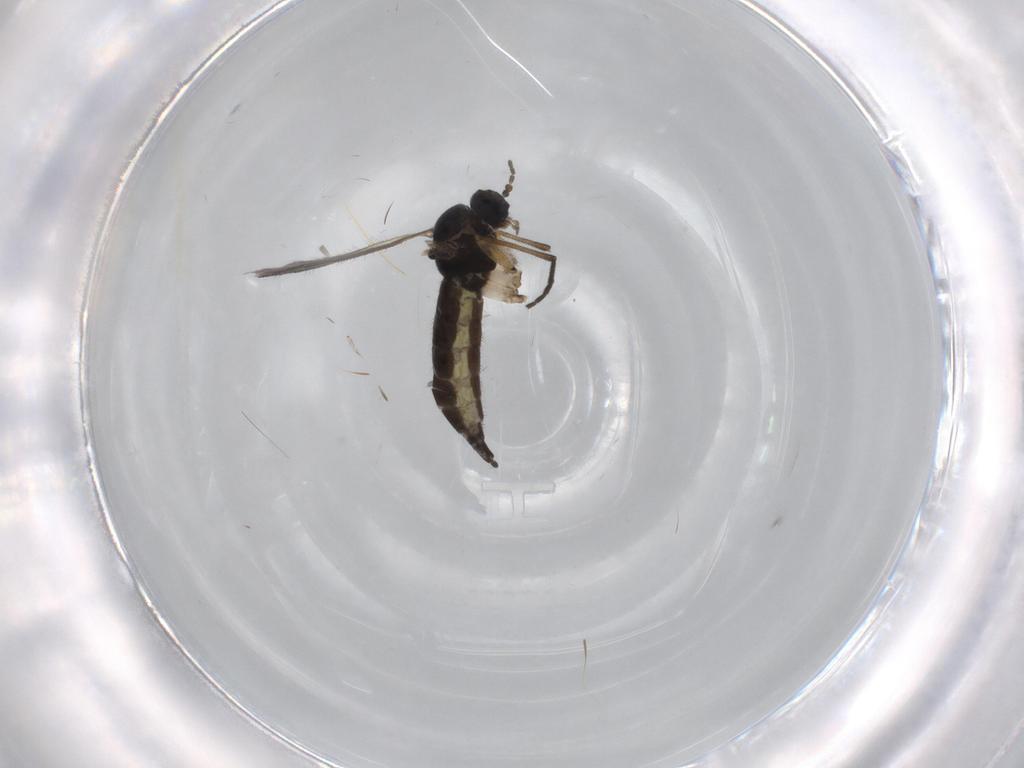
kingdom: Animalia
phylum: Arthropoda
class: Insecta
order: Diptera
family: Sciaridae
